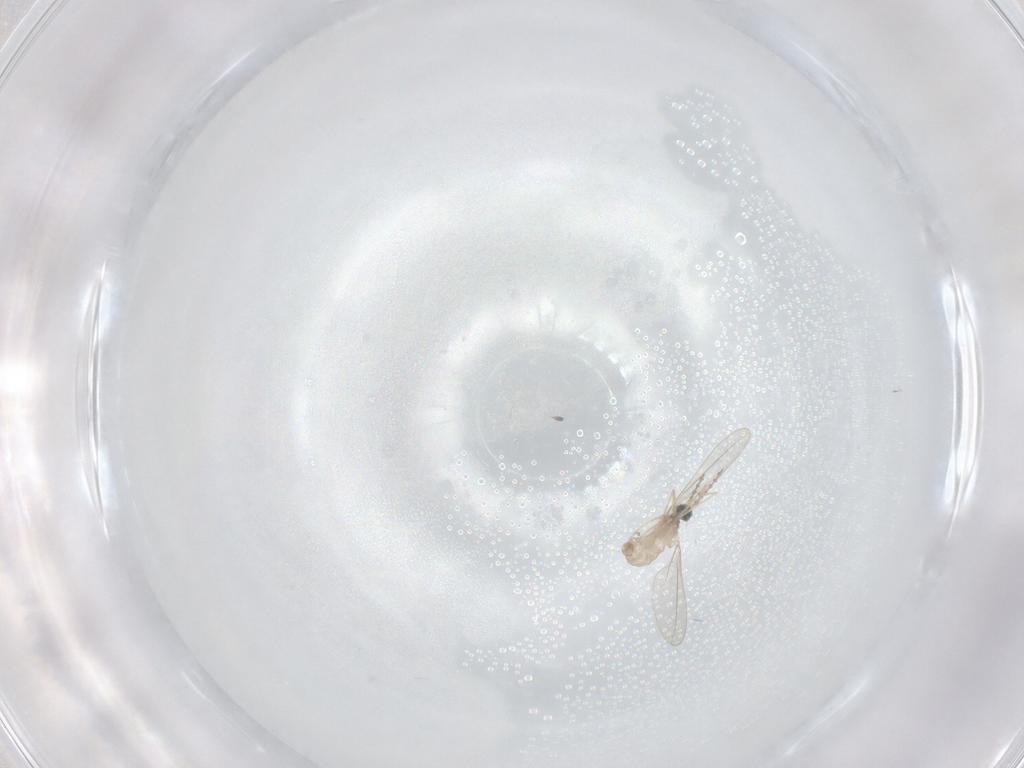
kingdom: Animalia
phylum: Arthropoda
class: Insecta
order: Diptera
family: Cecidomyiidae
